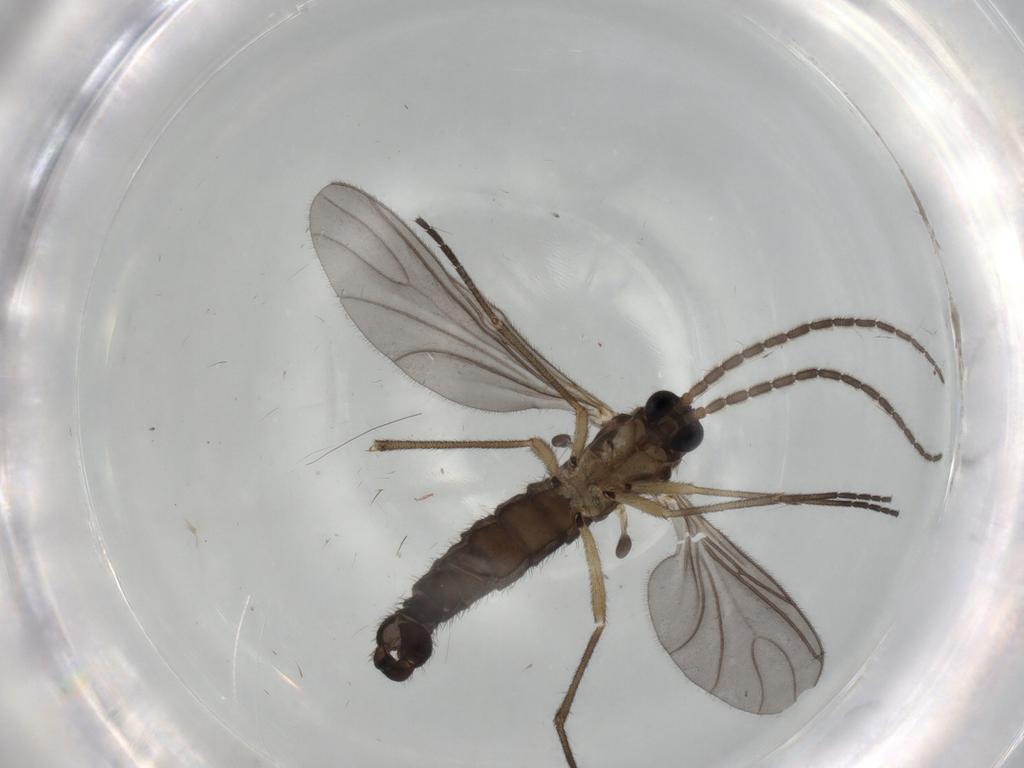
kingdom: Animalia
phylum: Arthropoda
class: Insecta
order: Diptera
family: Sciaridae
